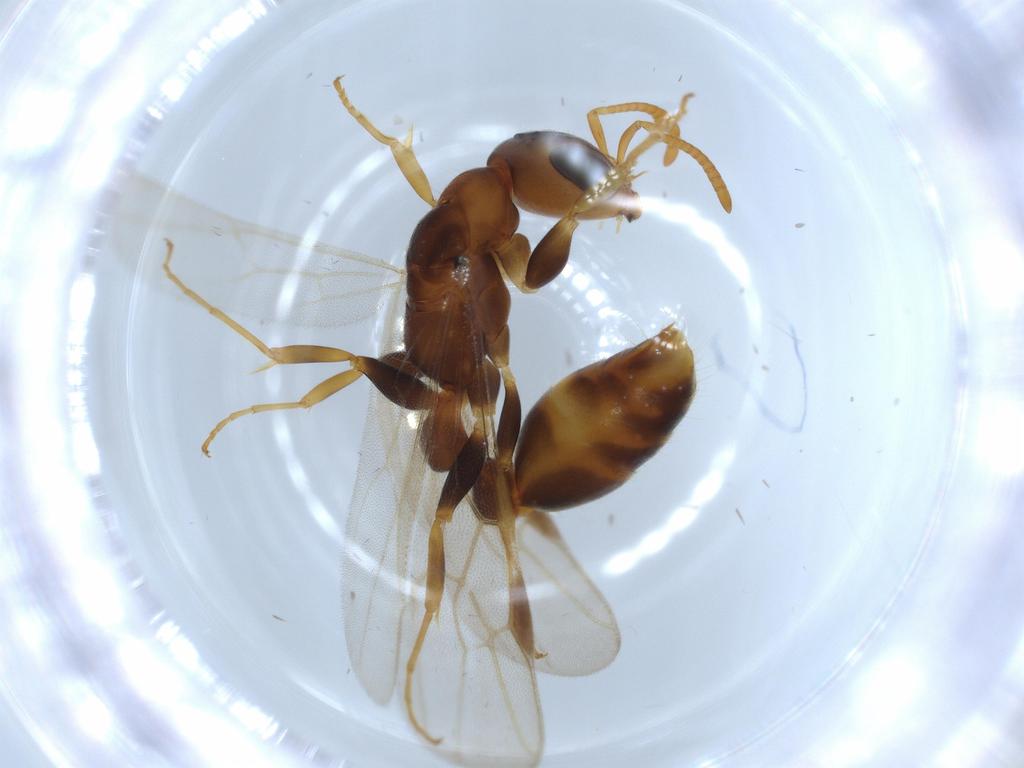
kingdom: Animalia
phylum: Arthropoda
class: Insecta
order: Hymenoptera
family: Formicidae
